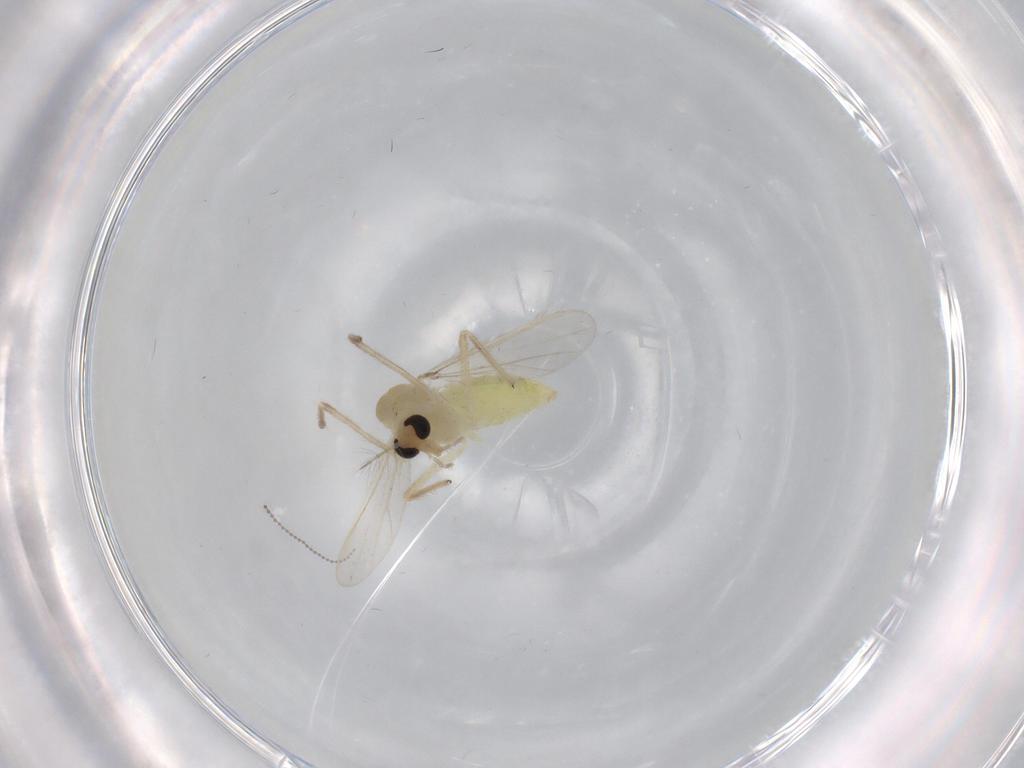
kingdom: Animalia
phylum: Arthropoda
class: Insecta
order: Diptera
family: Chironomidae
